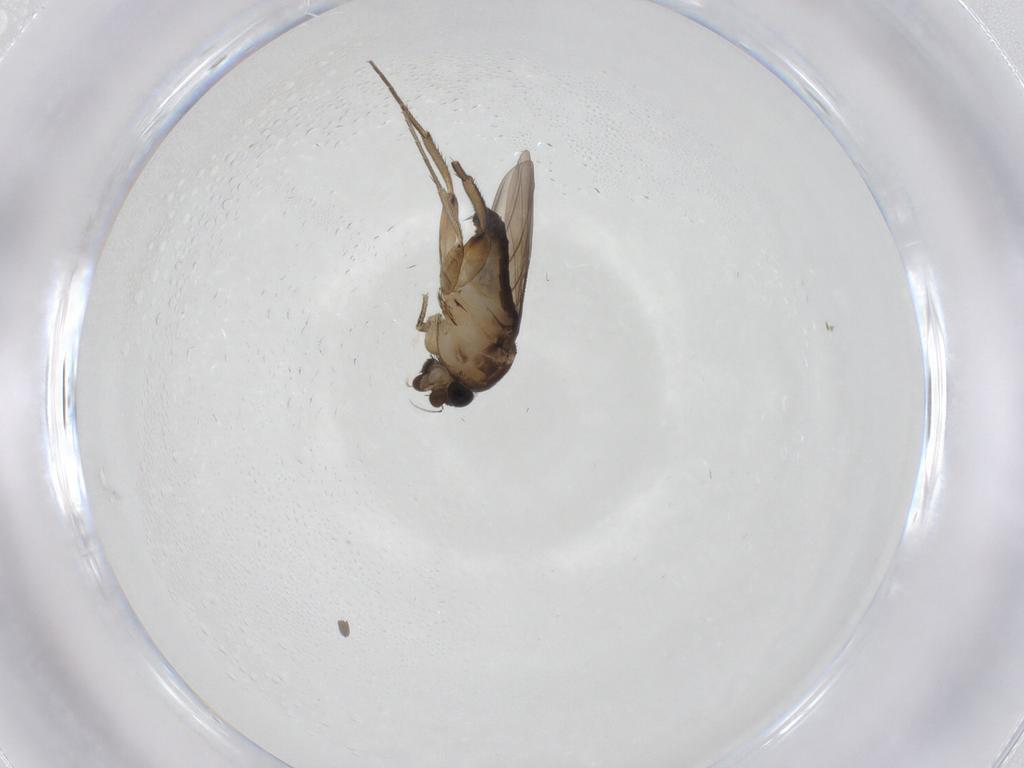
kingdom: Animalia
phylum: Arthropoda
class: Insecta
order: Diptera
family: Phoridae
